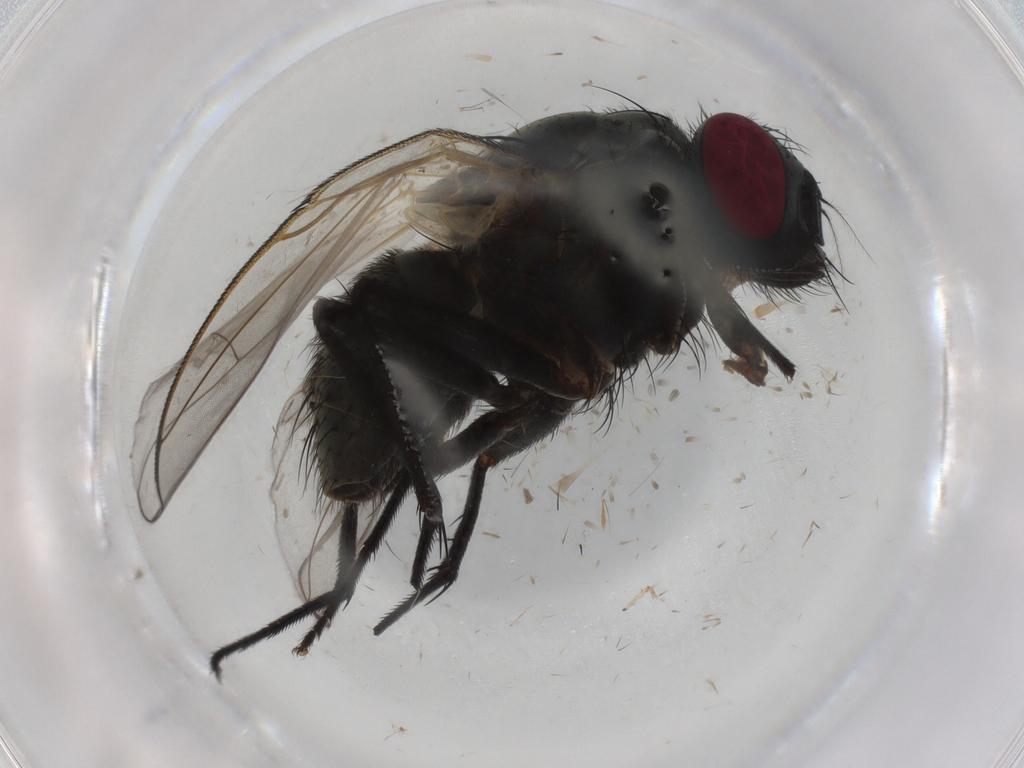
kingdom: Animalia
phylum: Arthropoda
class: Insecta
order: Diptera
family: Muscidae
